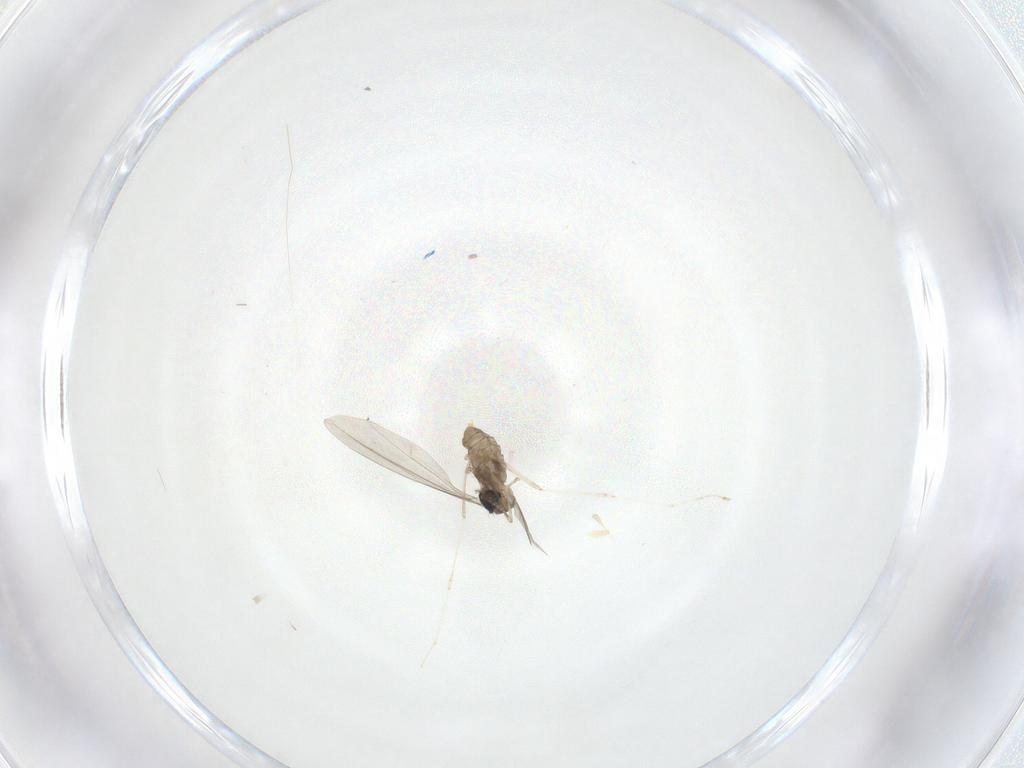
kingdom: Animalia
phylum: Arthropoda
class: Insecta
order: Diptera
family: Cecidomyiidae
